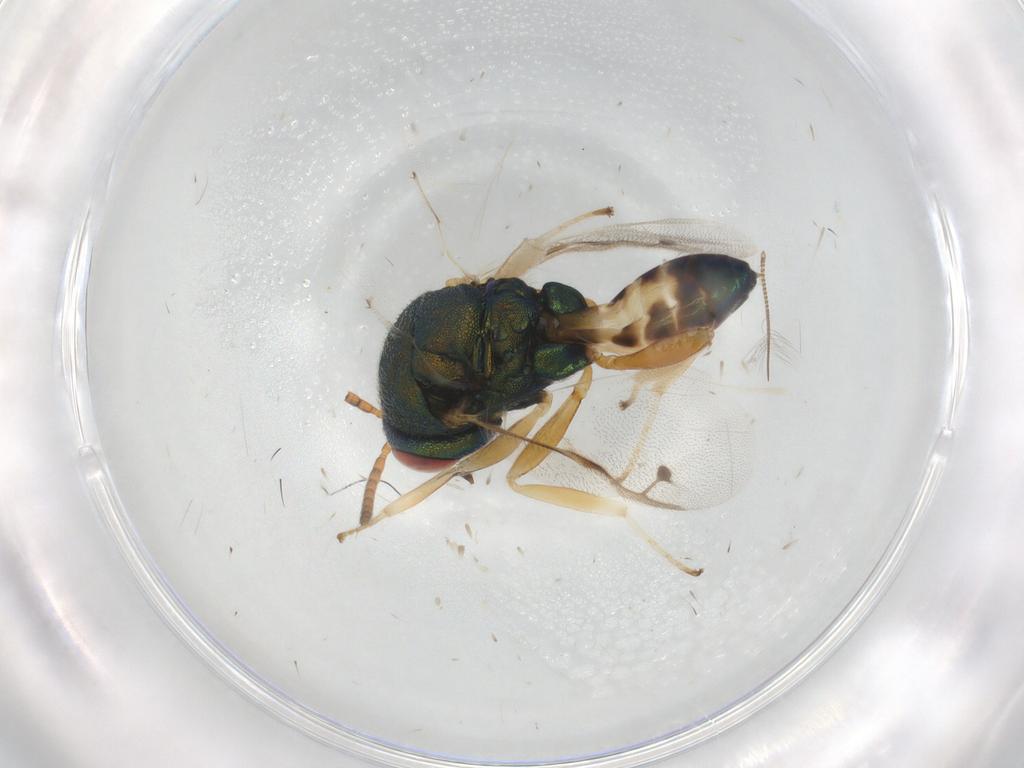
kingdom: Animalia
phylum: Arthropoda
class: Insecta
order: Hymenoptera
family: Bethylidae
